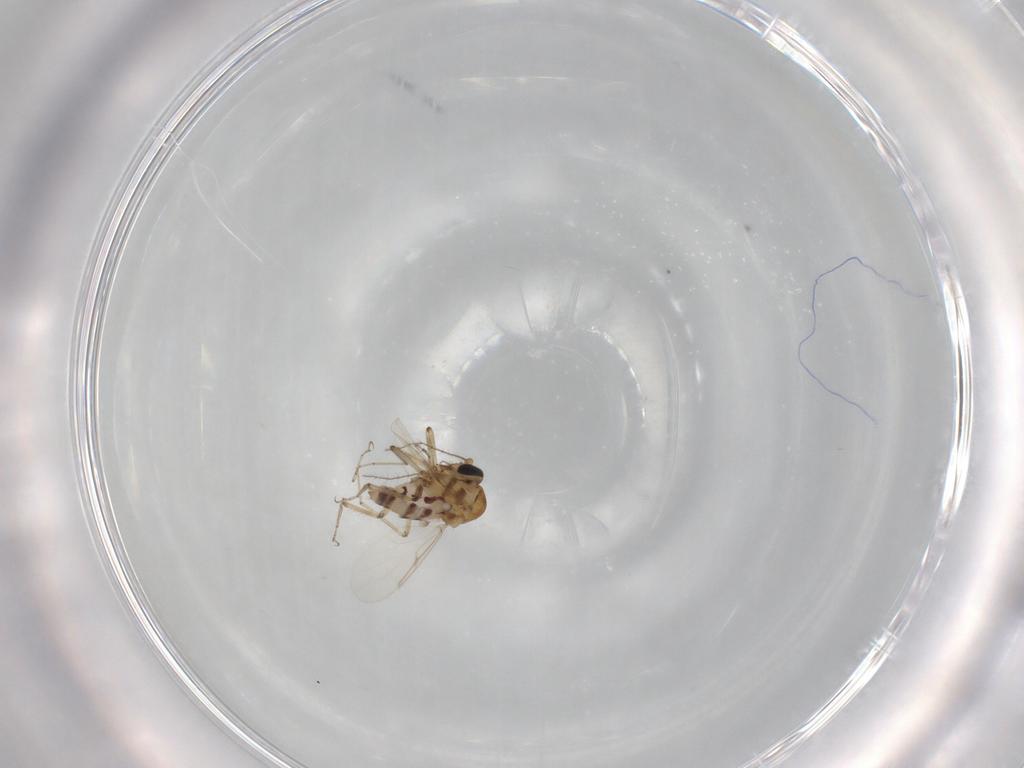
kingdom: Animalia
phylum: Arthropoda
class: Insecta
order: Diptera
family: Ceratopogonidae
